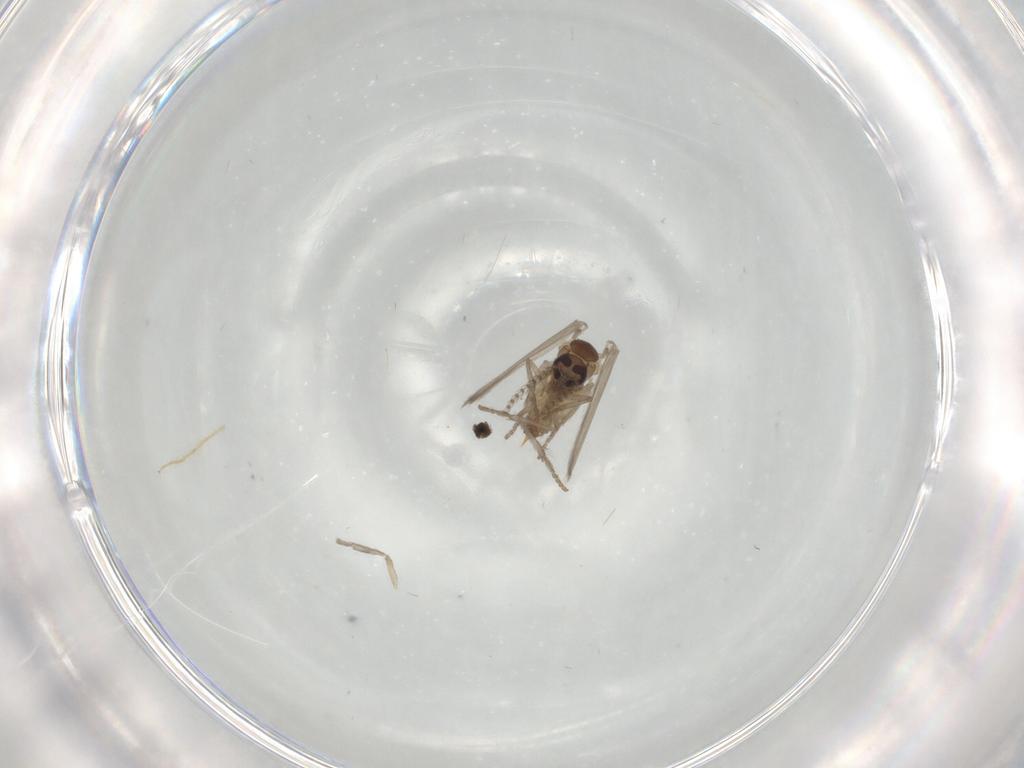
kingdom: Animalia
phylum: Arthropoda
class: Insecta
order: Diptera
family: Psychodidae
